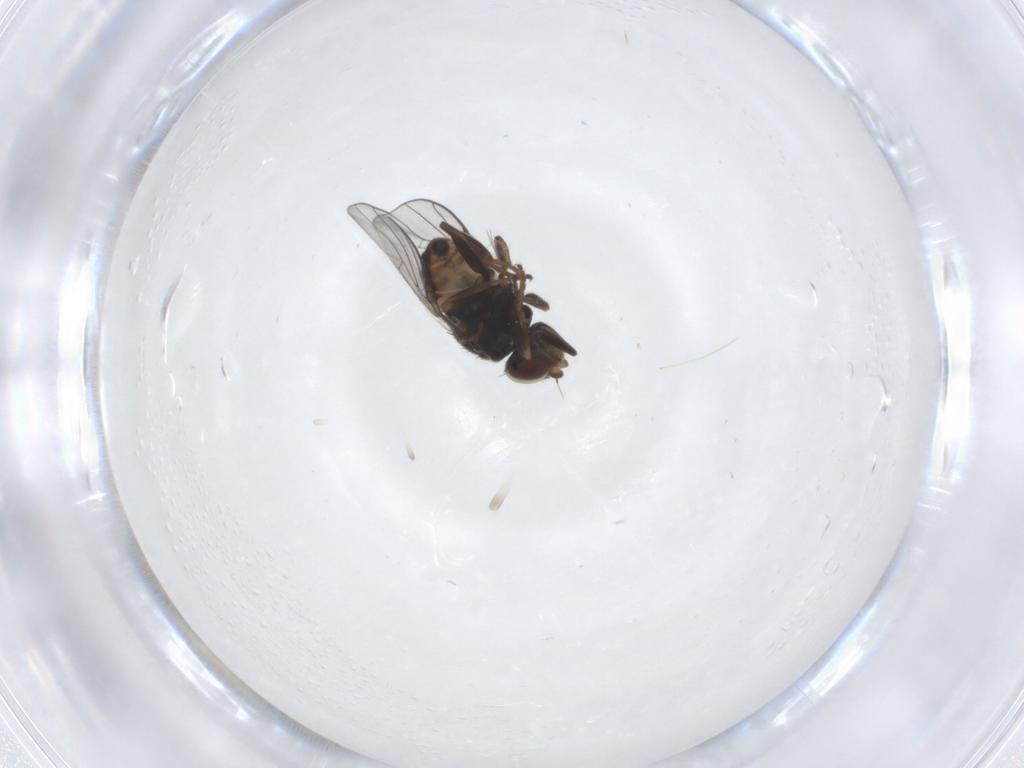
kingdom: Animalia
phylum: Arthropoda
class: Insecta
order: Diptera
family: Chloropidae
